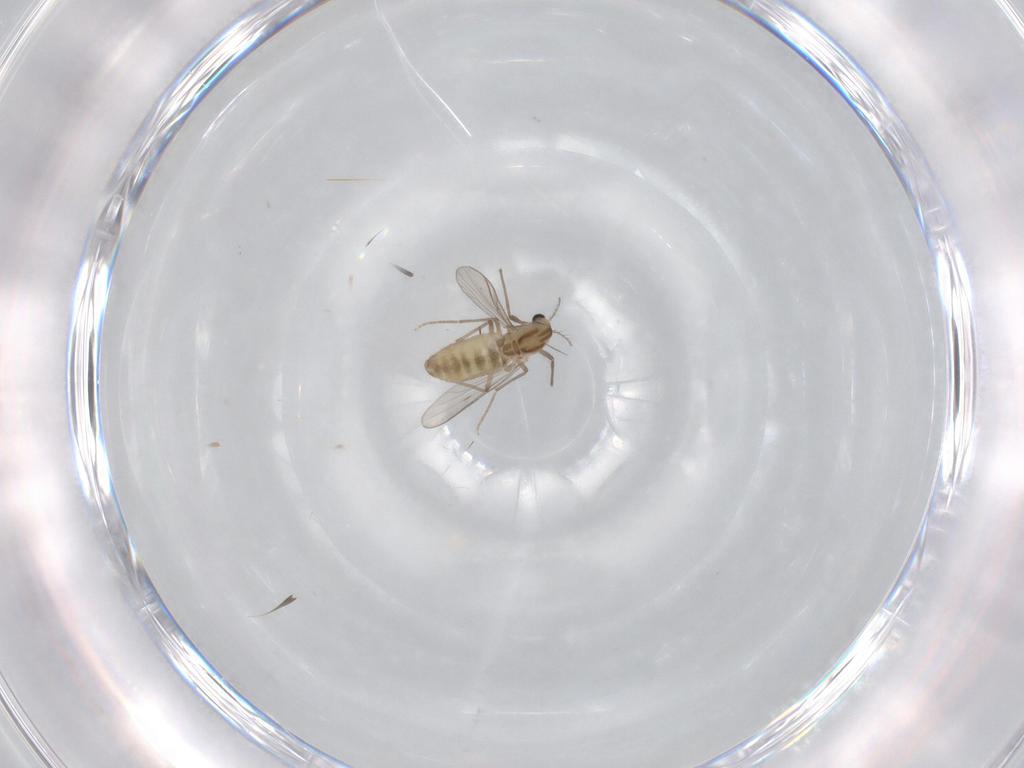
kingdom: Animalia
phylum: Arthropoda
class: Insecta
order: Diptera
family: Chironomidae
